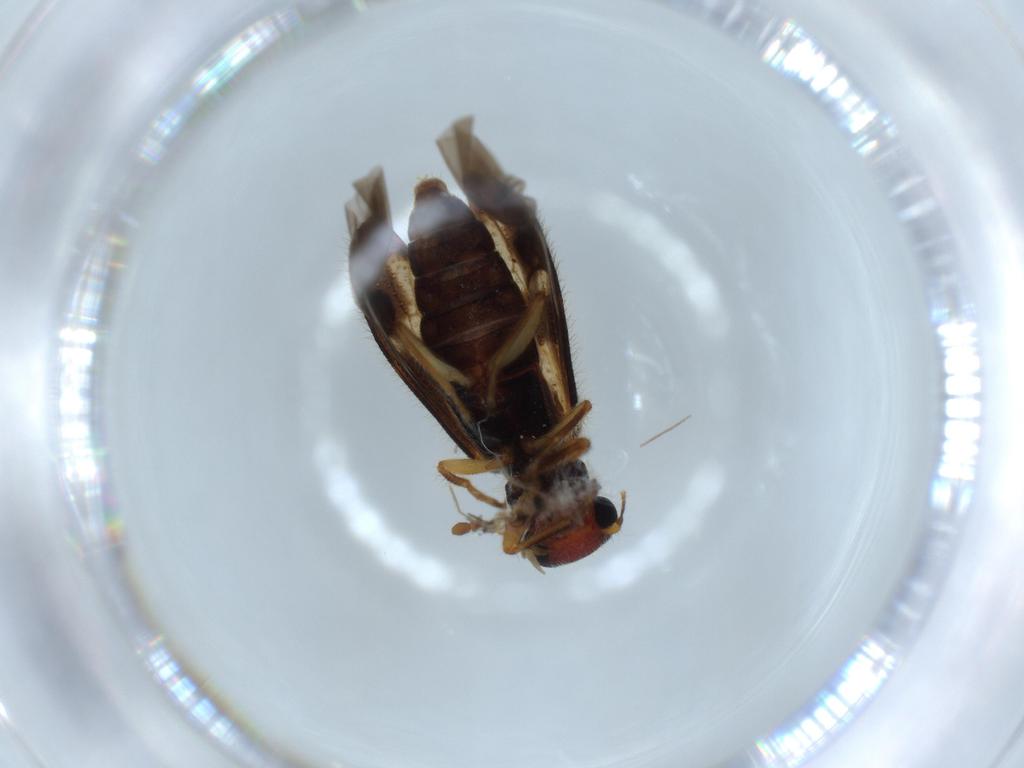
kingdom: Animalia
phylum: Arthropoda
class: Insecta
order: Coleoptera
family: Cleridae
